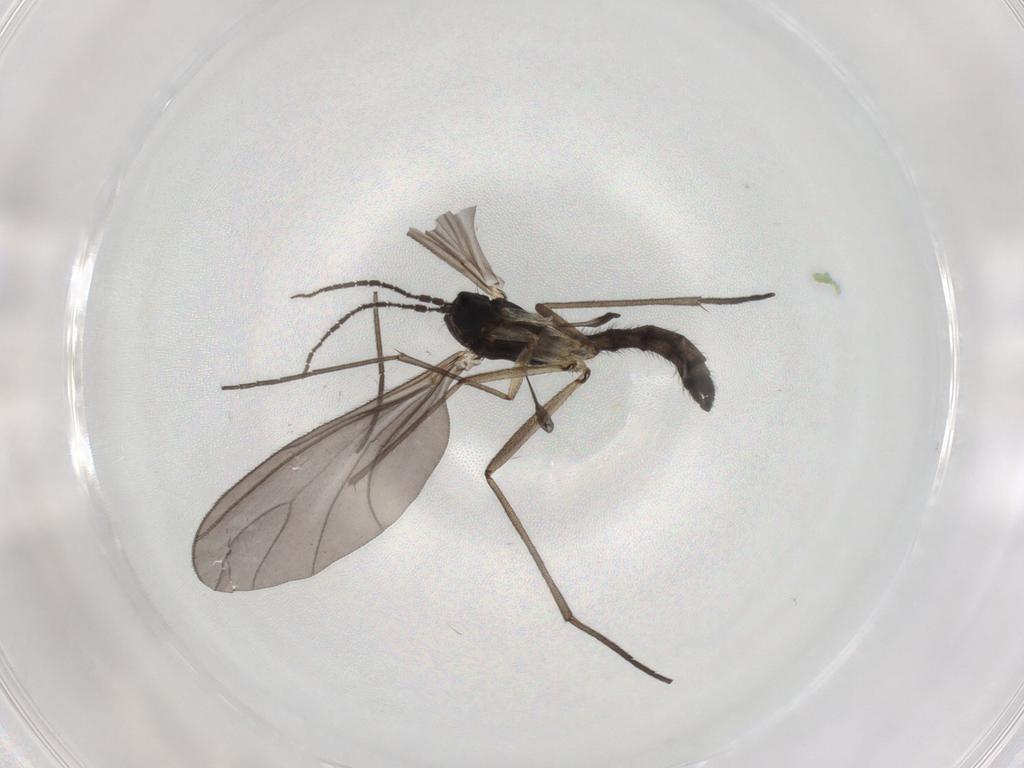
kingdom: Animalia
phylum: Arthropoda
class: Insecta
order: Diptera
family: Sciaridae
